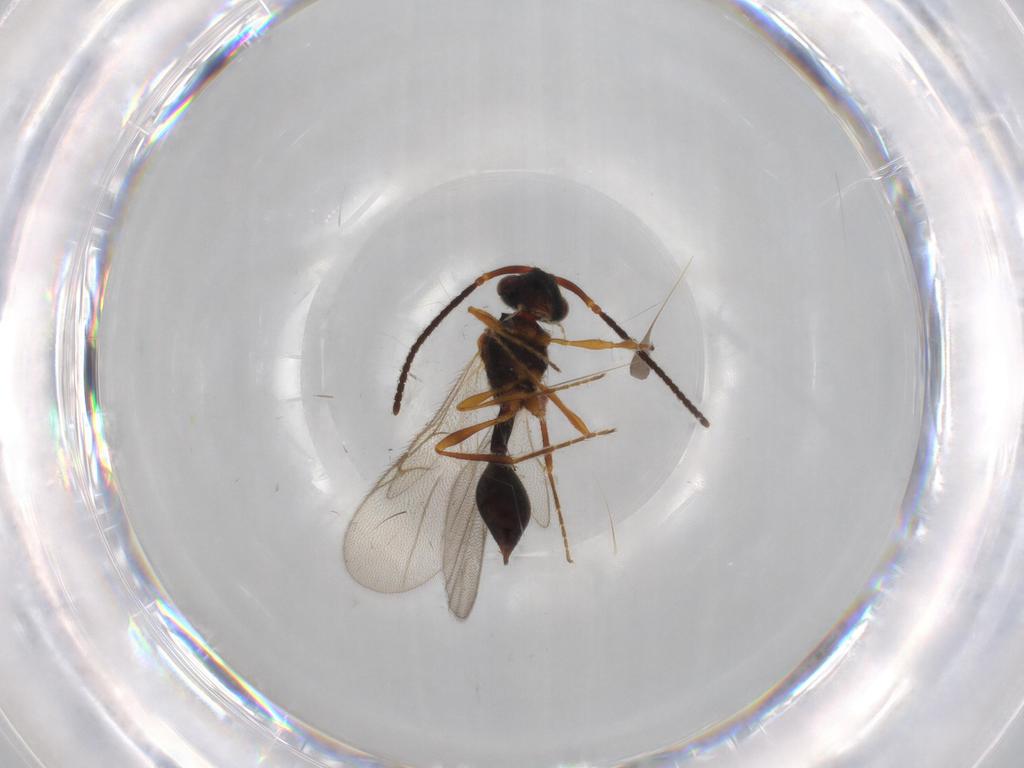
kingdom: Animalia
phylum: Arthropoda
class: Insecta
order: Hymenoptera
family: Diapriidae
